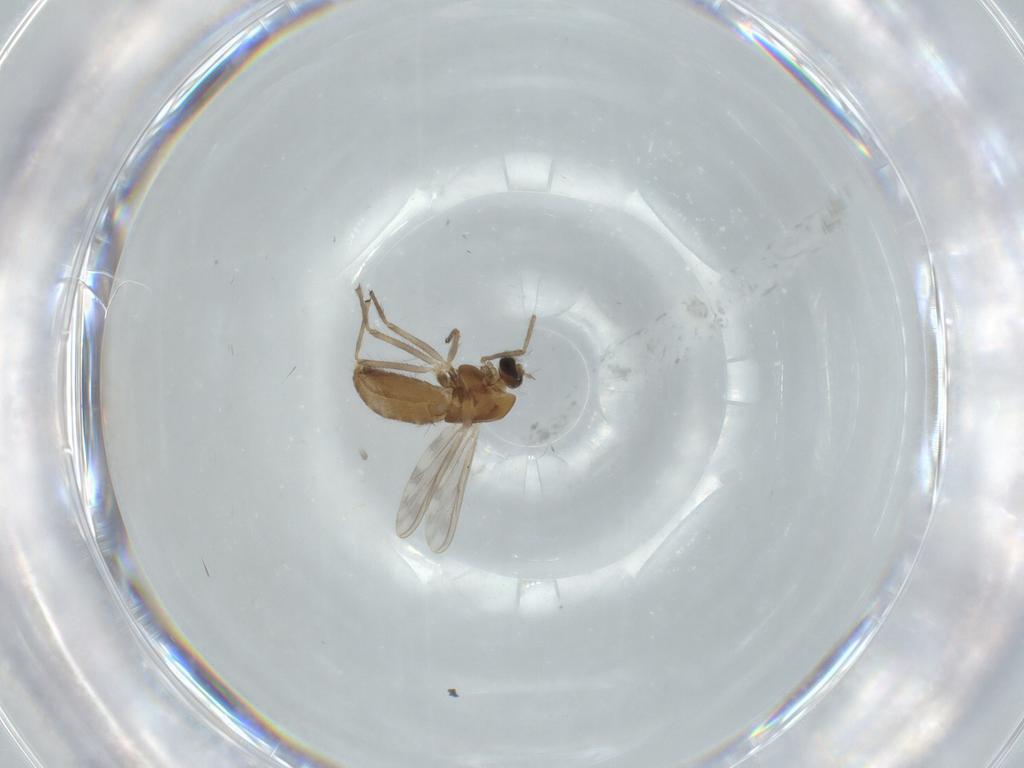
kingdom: Animalia
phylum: Arthropoda
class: Insecta
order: Diptera
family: Chironomidae
